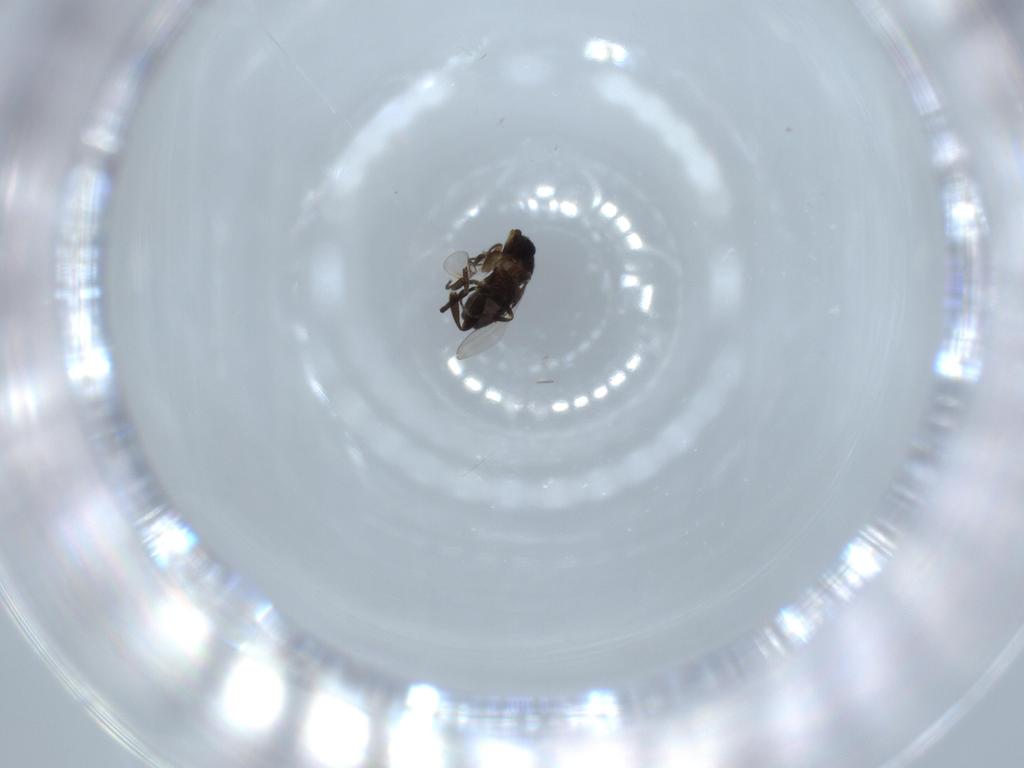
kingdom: Animalia
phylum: Arthropoda
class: Insecta
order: Diptera
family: Phoridae
